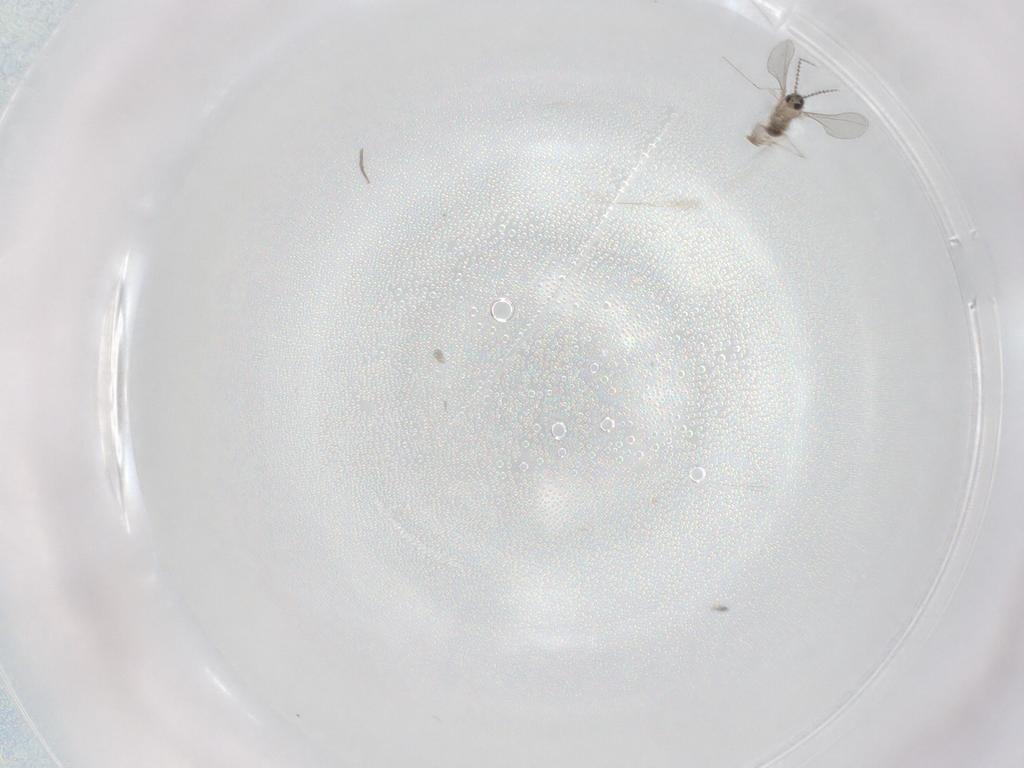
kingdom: Animalia
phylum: Arthropoda
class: Insecta
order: Diptera
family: Cecidomyiidae
